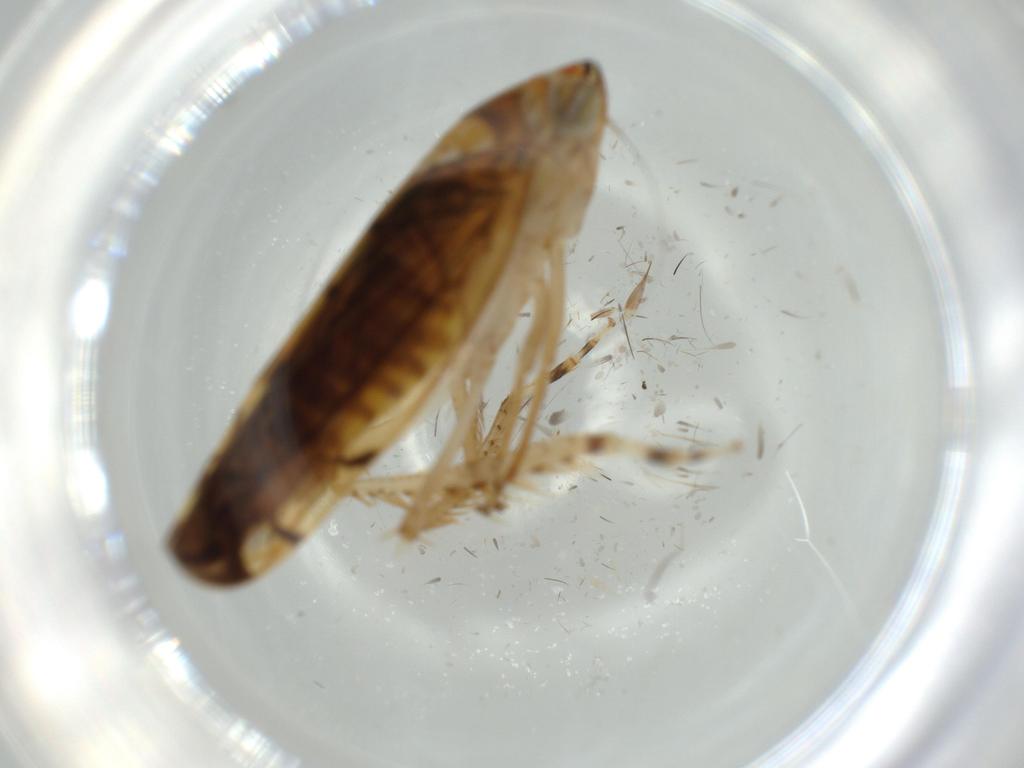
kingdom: Animalia
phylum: Arthropoda
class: Insecta
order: Hemiptera
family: Cicadellidae
